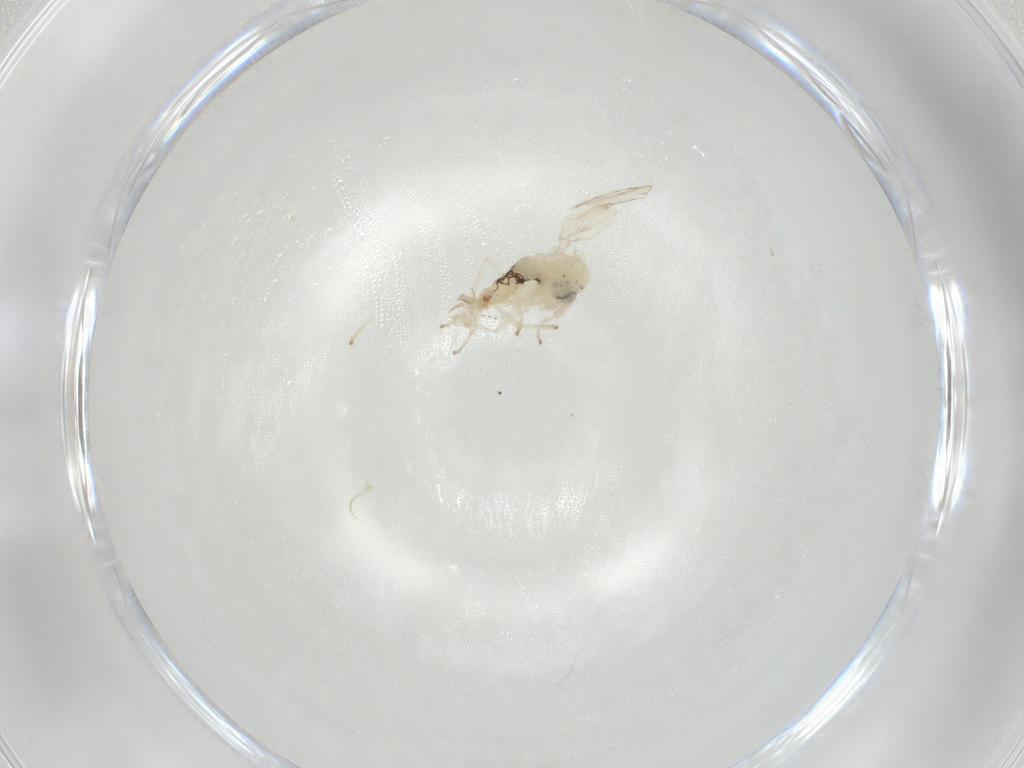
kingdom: Animalia
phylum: Arthropoda
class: Insecta
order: Diptera
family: Psychodidae
